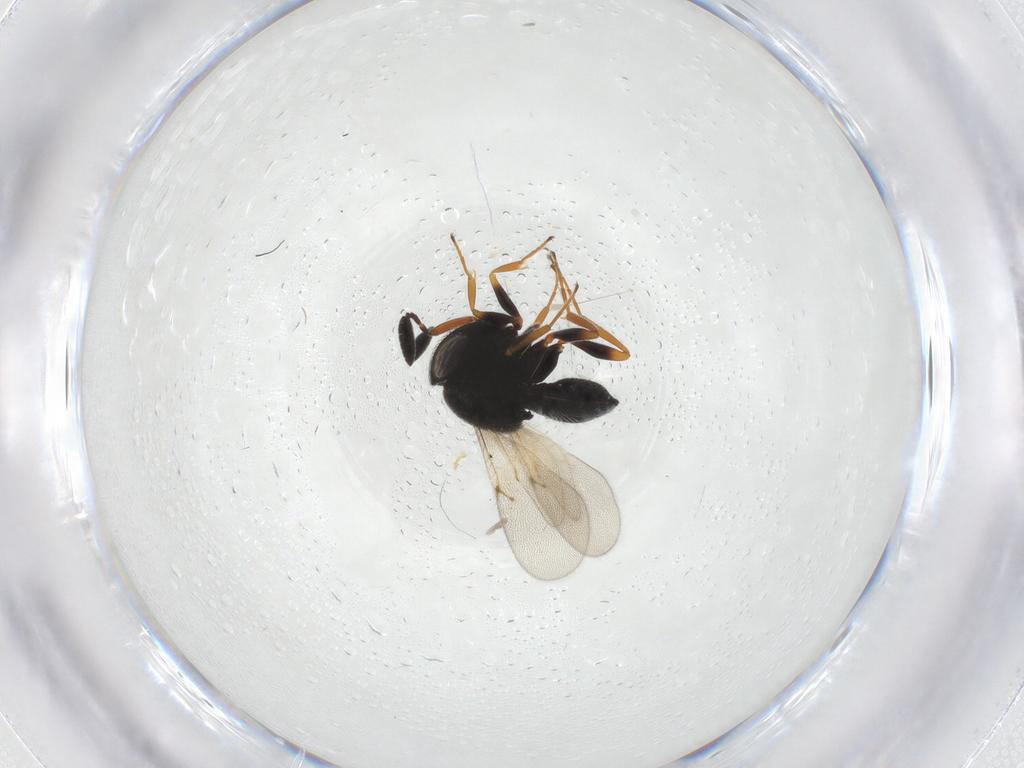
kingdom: Animalia
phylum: Arthropoda
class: Insecta
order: Hymenoptera
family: Scelionidae
